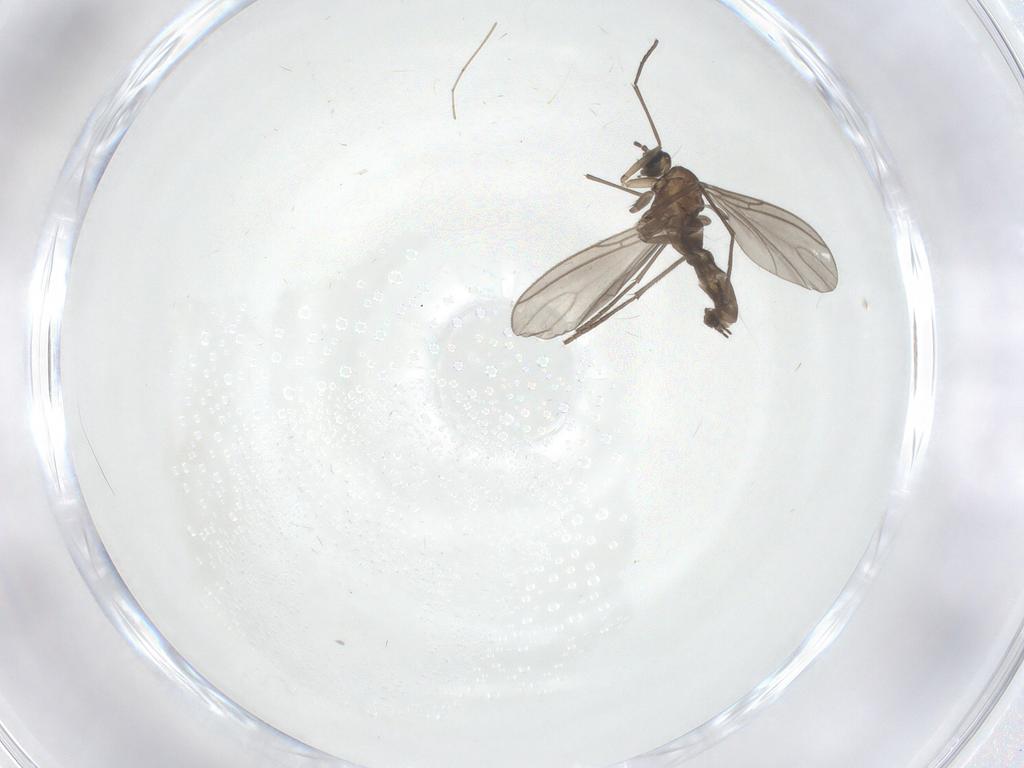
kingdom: Animalia
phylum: Arthropoda
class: Insecta
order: Diptera
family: Sciaridae
